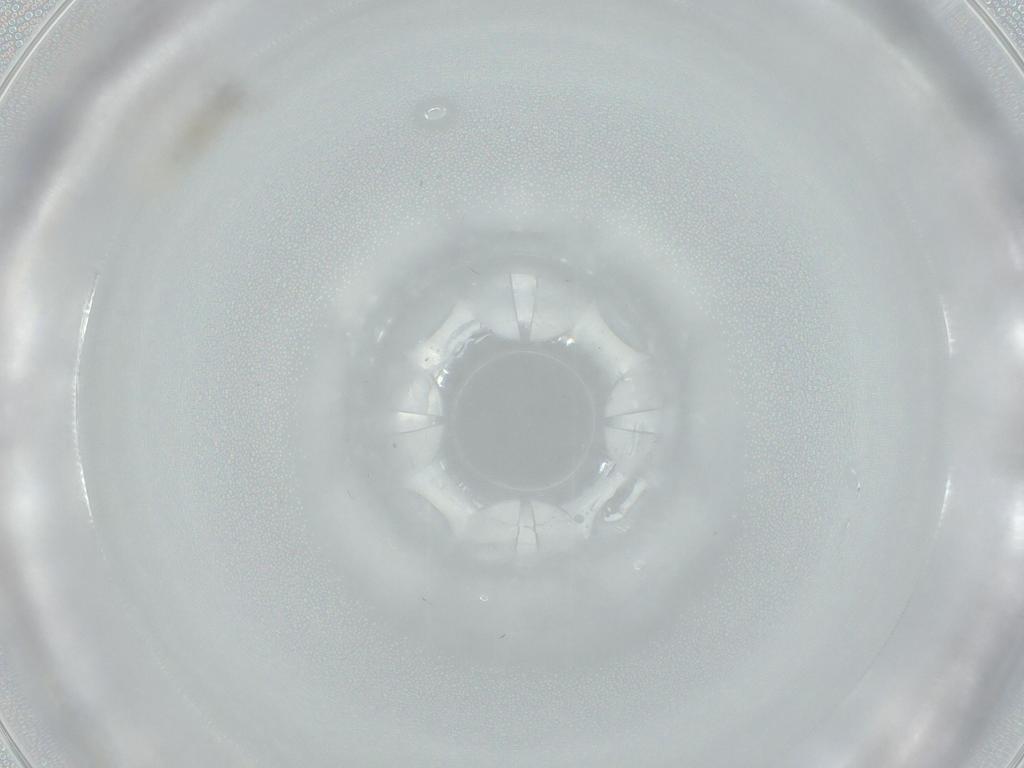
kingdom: Animalia
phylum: Arthropoda
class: Insecta
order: Diptera
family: Cecidomyiidae
